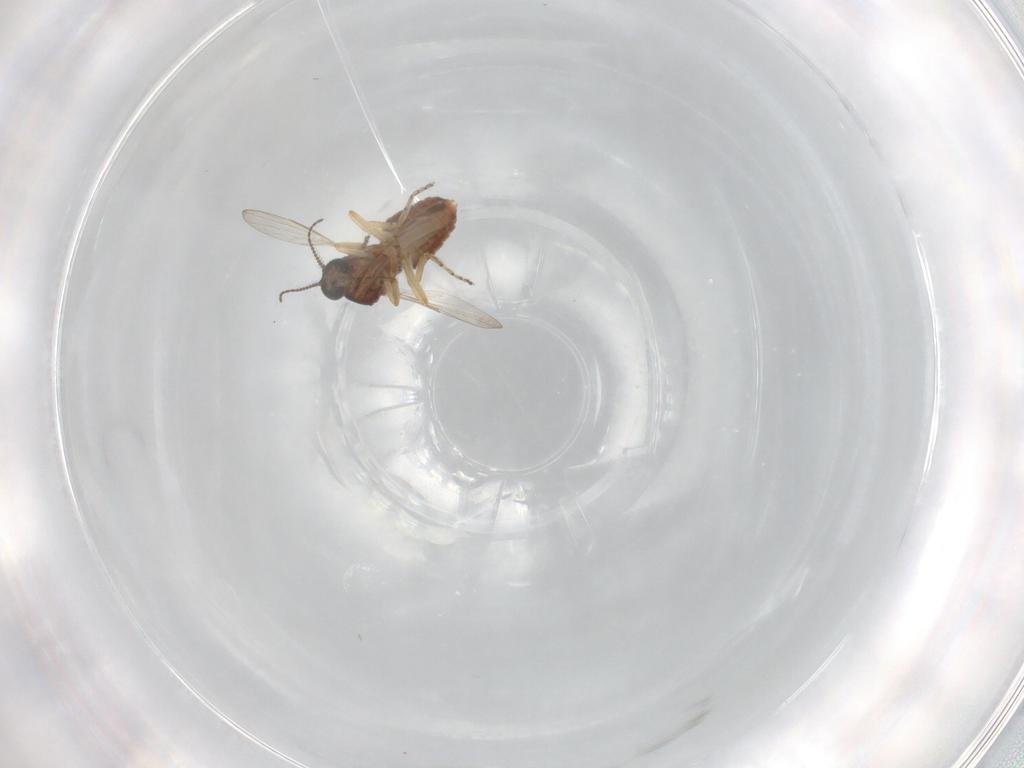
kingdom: Animalia
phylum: Arthropoda
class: Insecta
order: Diptera
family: Ceratopogonidae
